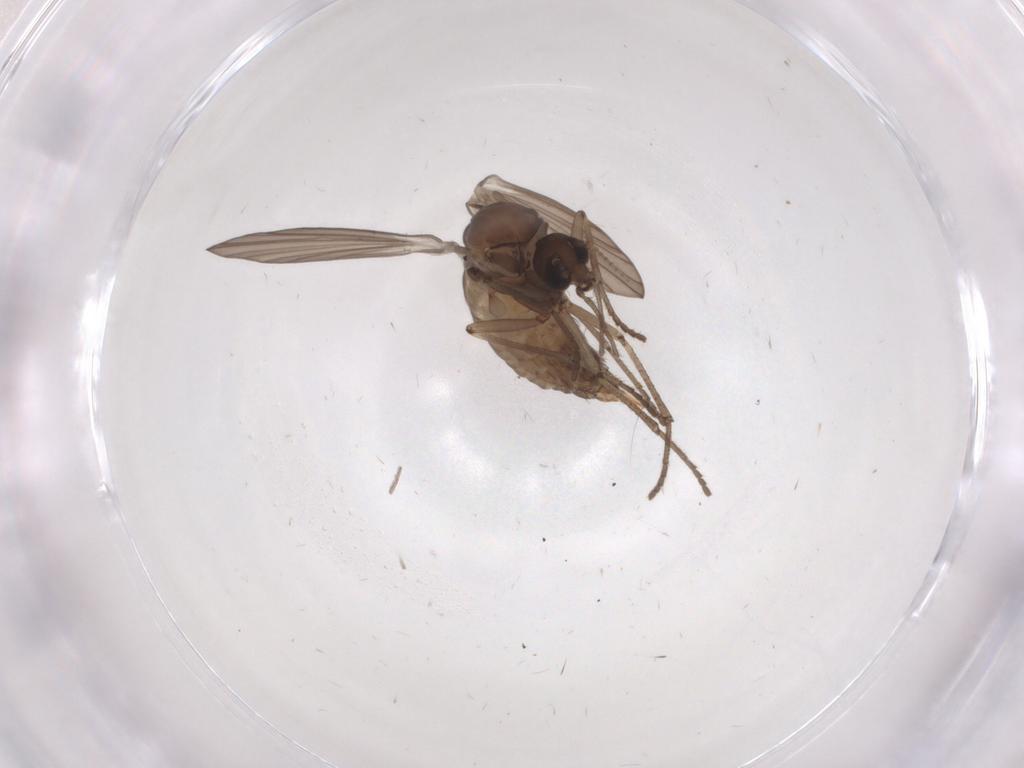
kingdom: Animalia
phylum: Arthropoda
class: Insecta
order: Diptera
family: Psychodidae
